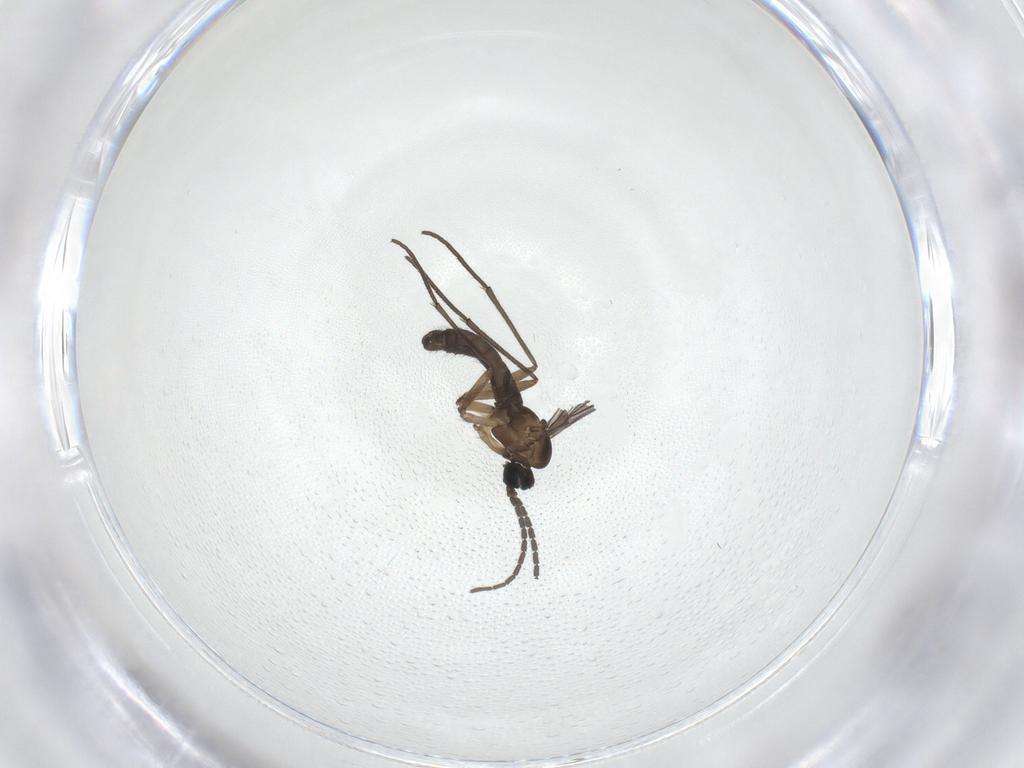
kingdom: Animalia
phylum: Arthropoda
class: Insecta
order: Diptera
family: Sciaridae
